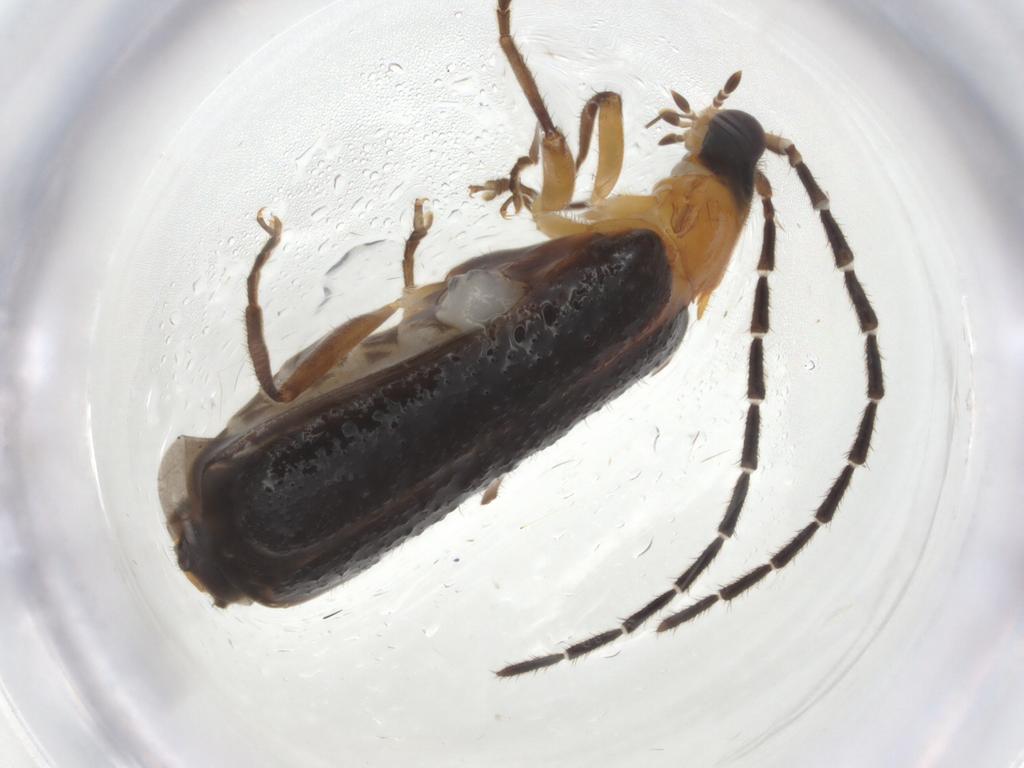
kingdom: Animalia
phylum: Arthropoda
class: Insecta
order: Coleoptera
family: Cantharidae
